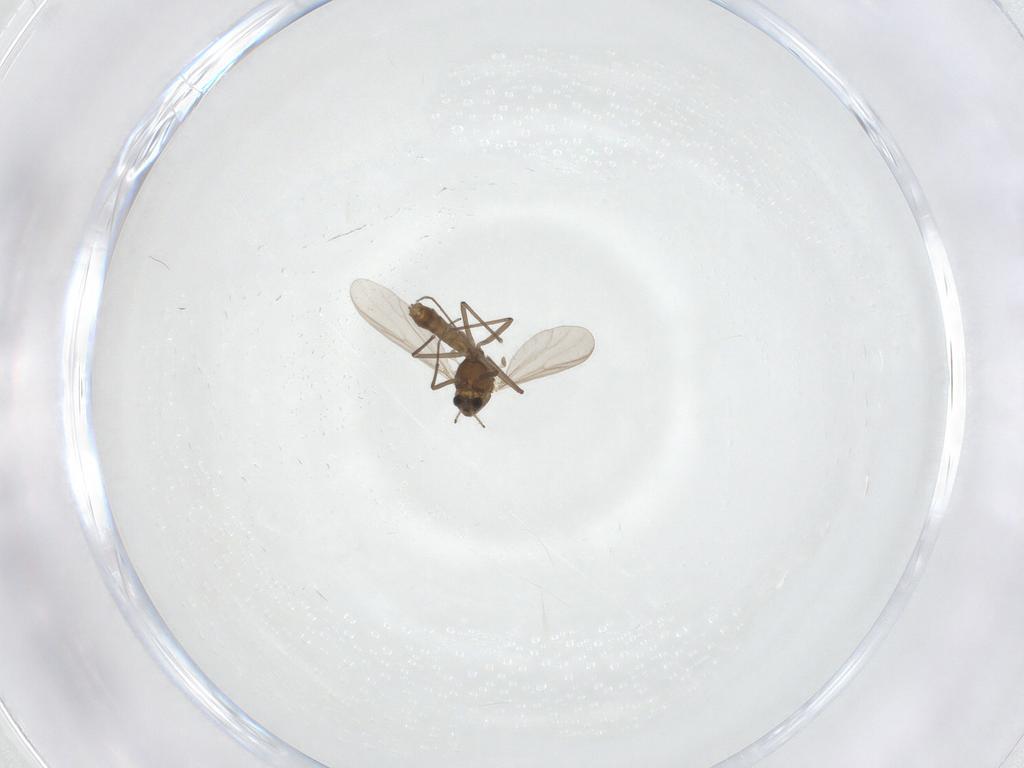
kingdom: Animalia
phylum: Arthropoda
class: Insecta
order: Diptera
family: Chironomidae
